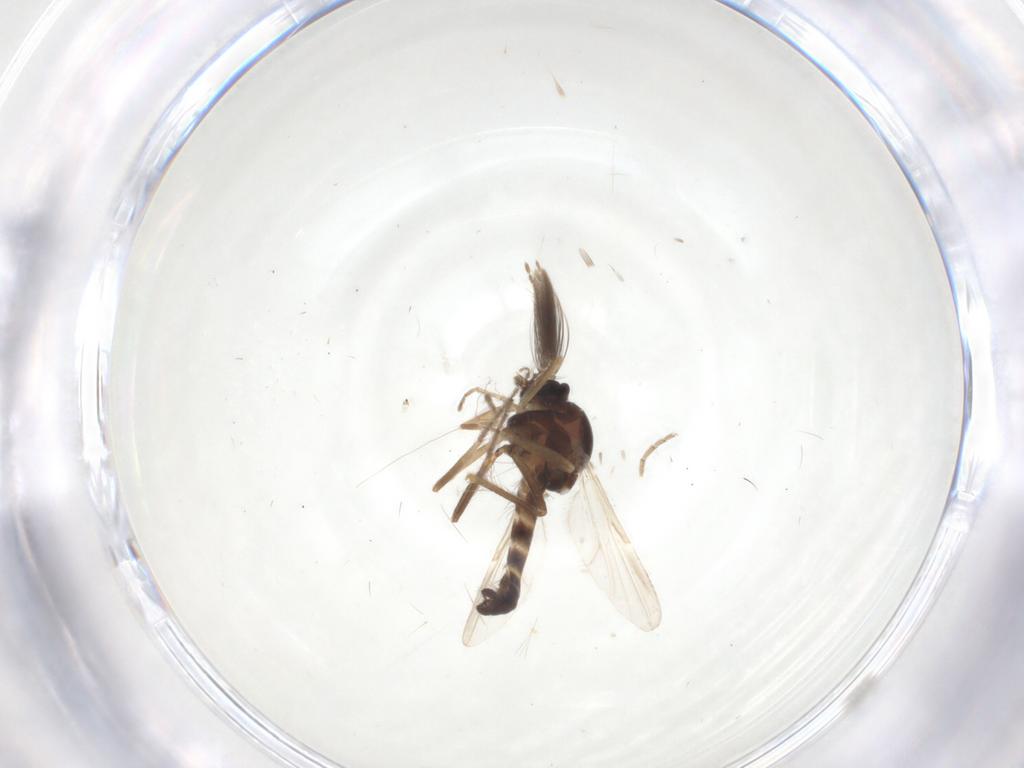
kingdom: Animalia
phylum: Arthropoda
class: Insecta
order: Diptera
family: Ceratopogonidae
